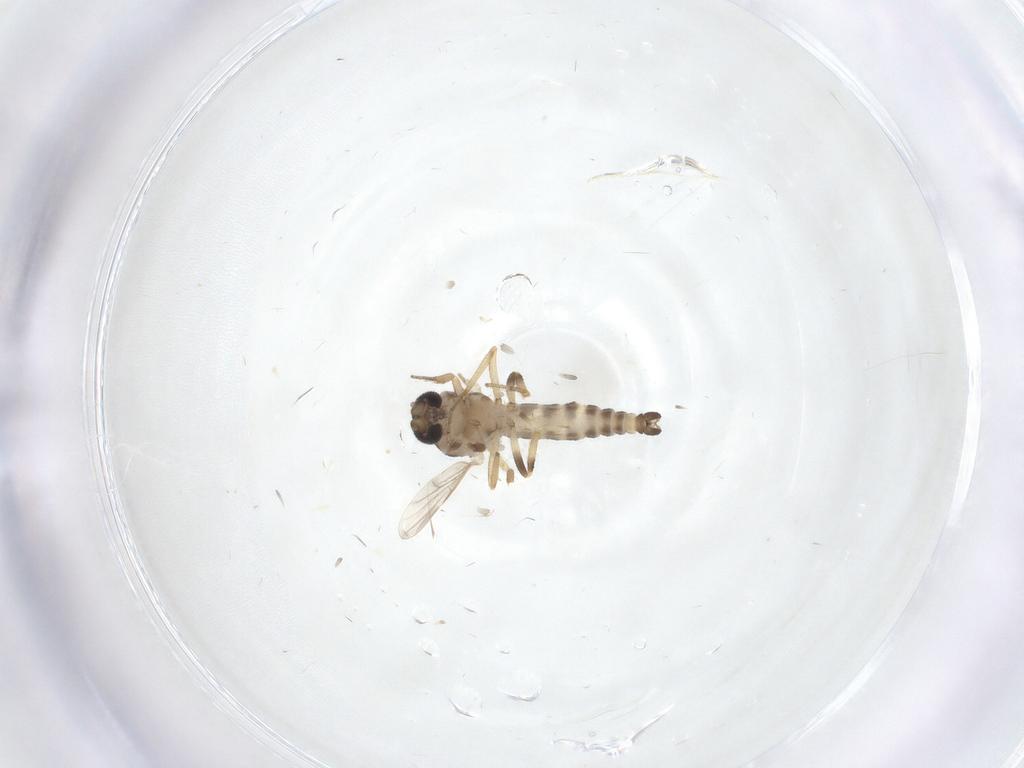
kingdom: Animalia
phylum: Arthropoda
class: Insecta
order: Diptera
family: Ceratopogonidae
